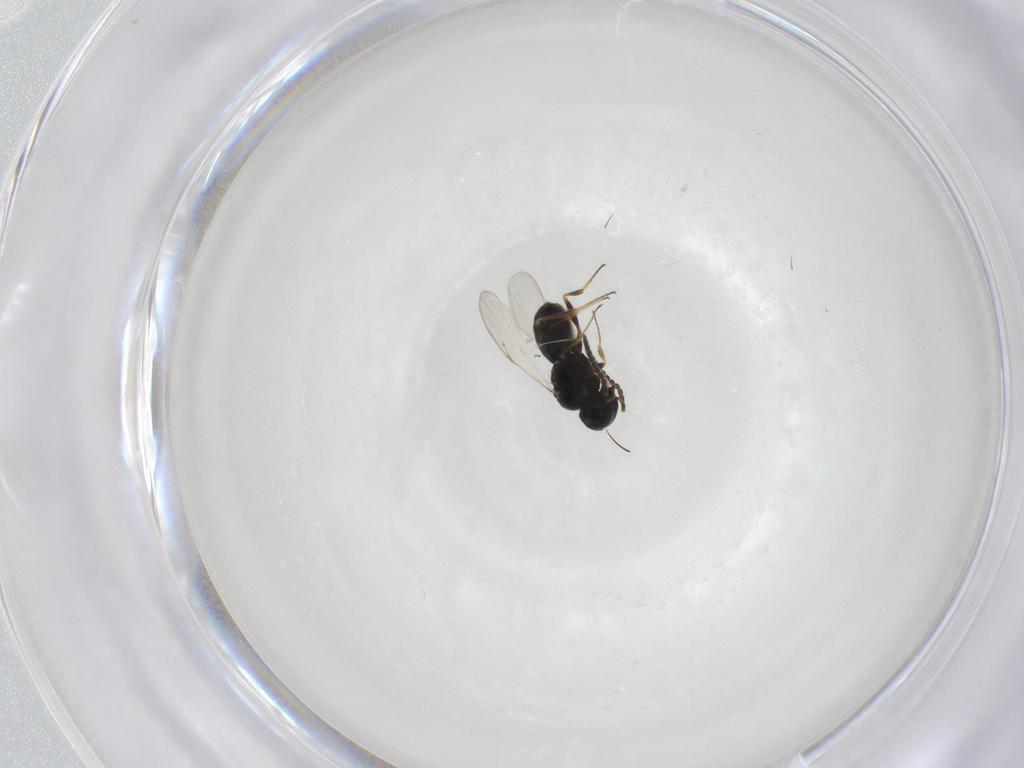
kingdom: Animalia
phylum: Arthropoda
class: Insecta
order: Hymenoptera
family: Scelionidae
